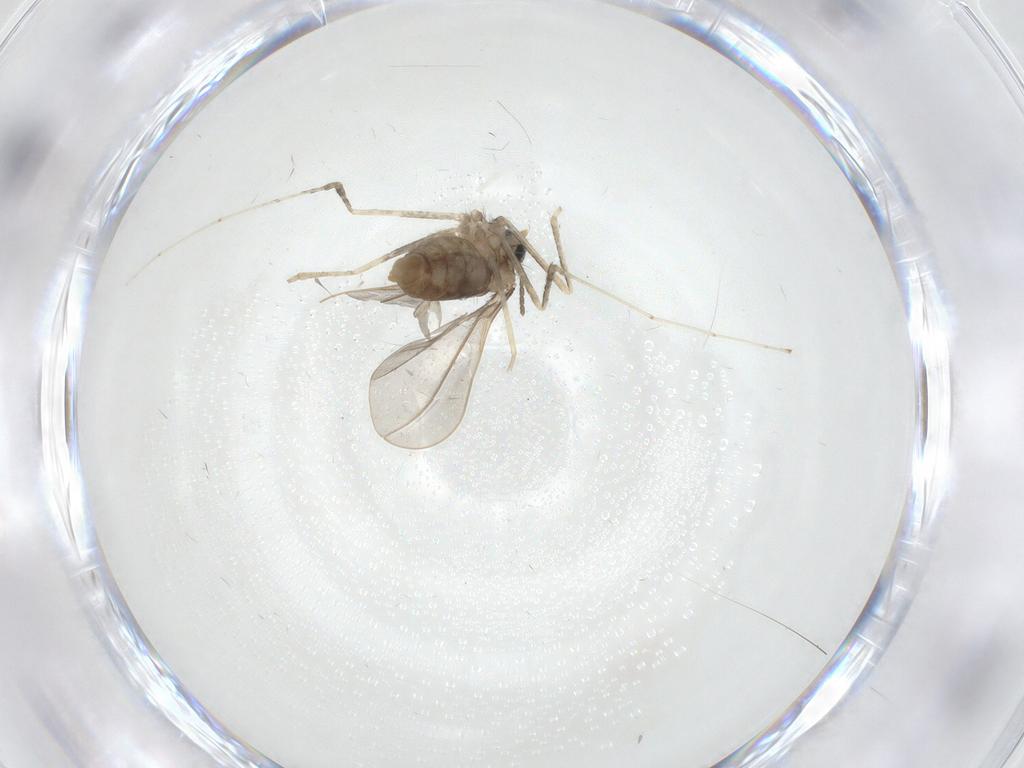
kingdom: Animalia
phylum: Arthropoda
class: Insecta
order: Diptera
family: Cecidomyiidae
